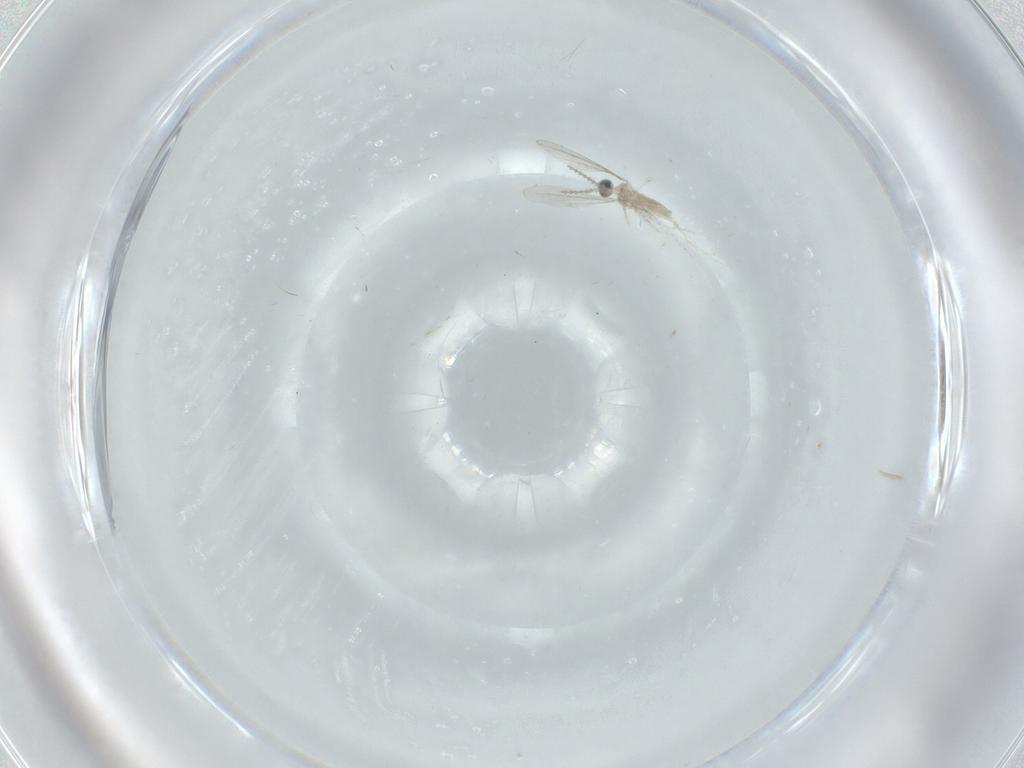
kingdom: Animalia
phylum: Arthropoda
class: Insecta
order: Diptera
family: Cecidomyiidae
